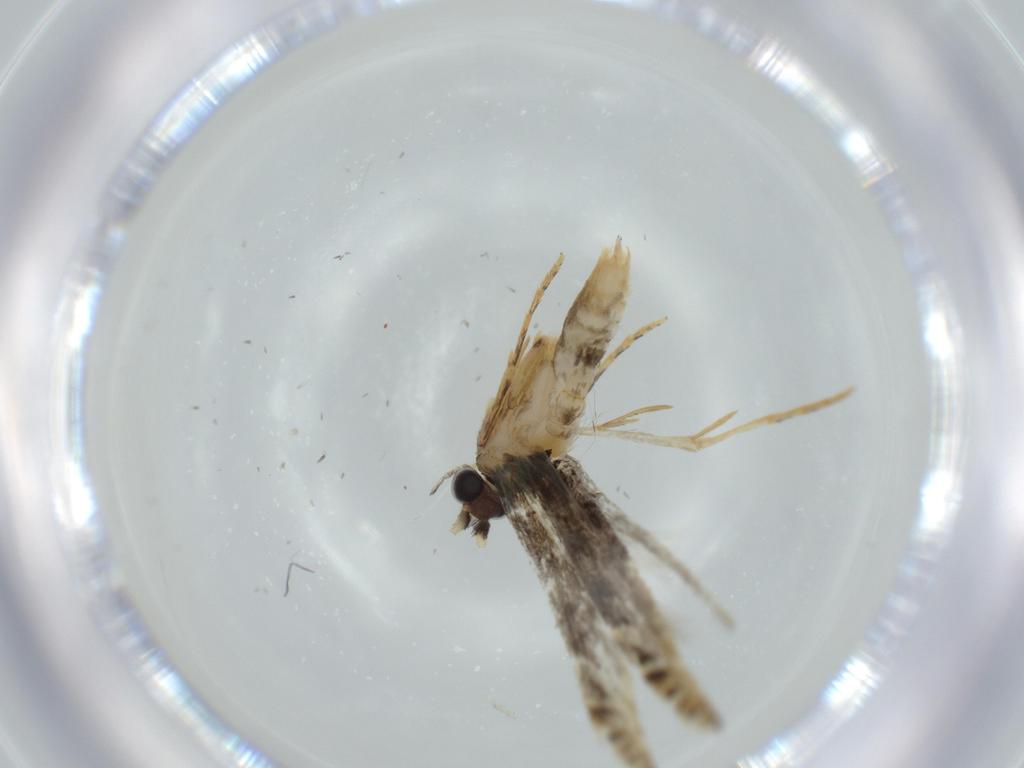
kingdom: Animalia
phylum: Arthropoda
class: Insecta
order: Lepidoptera
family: Tineidae
